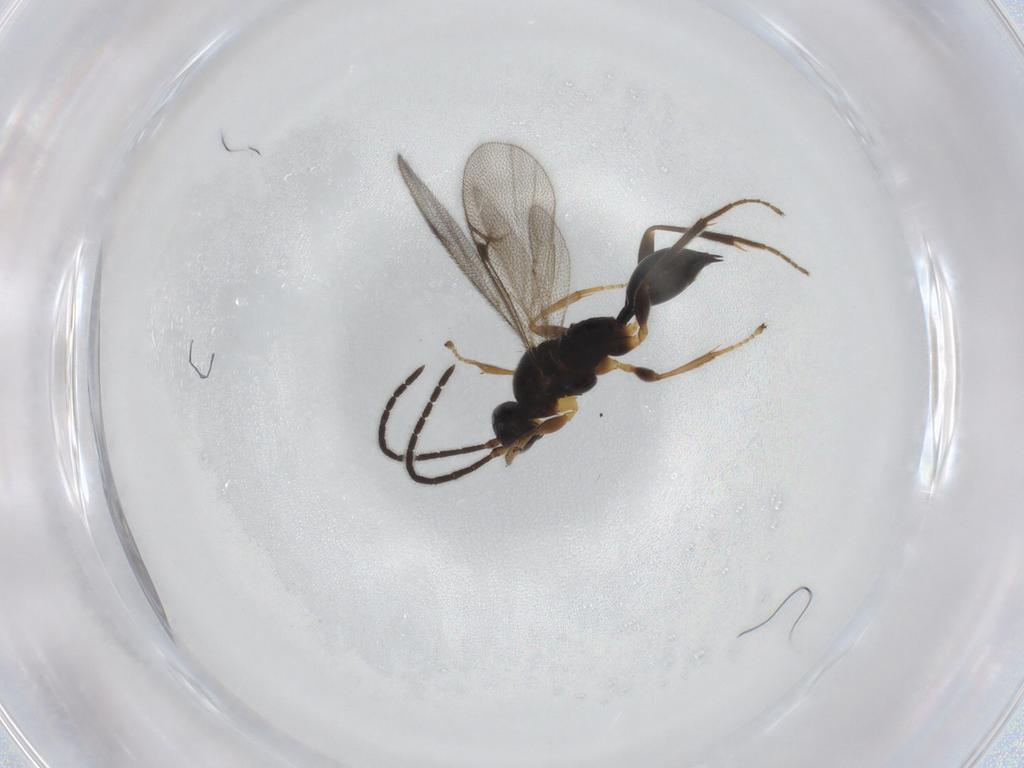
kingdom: Animalia
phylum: Arthropoda
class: Insecta
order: Hymenoptera
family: Proctotrupidae
